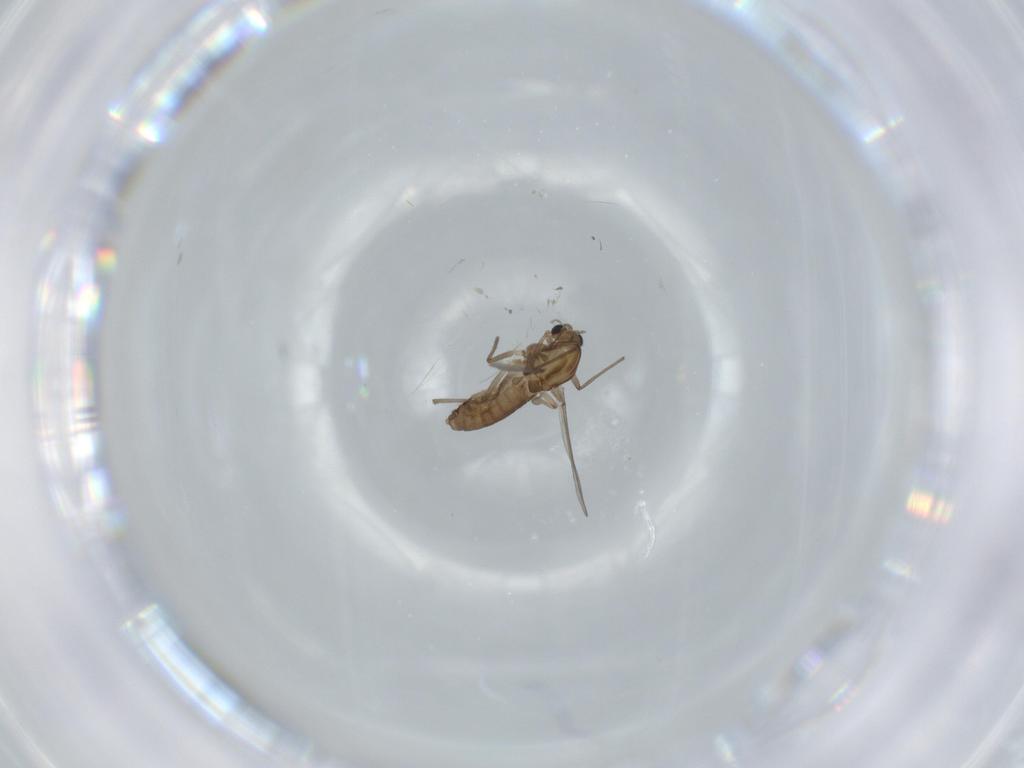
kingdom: Animalia
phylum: Arthropoda
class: Insecta
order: Diptera
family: Chironomidae
